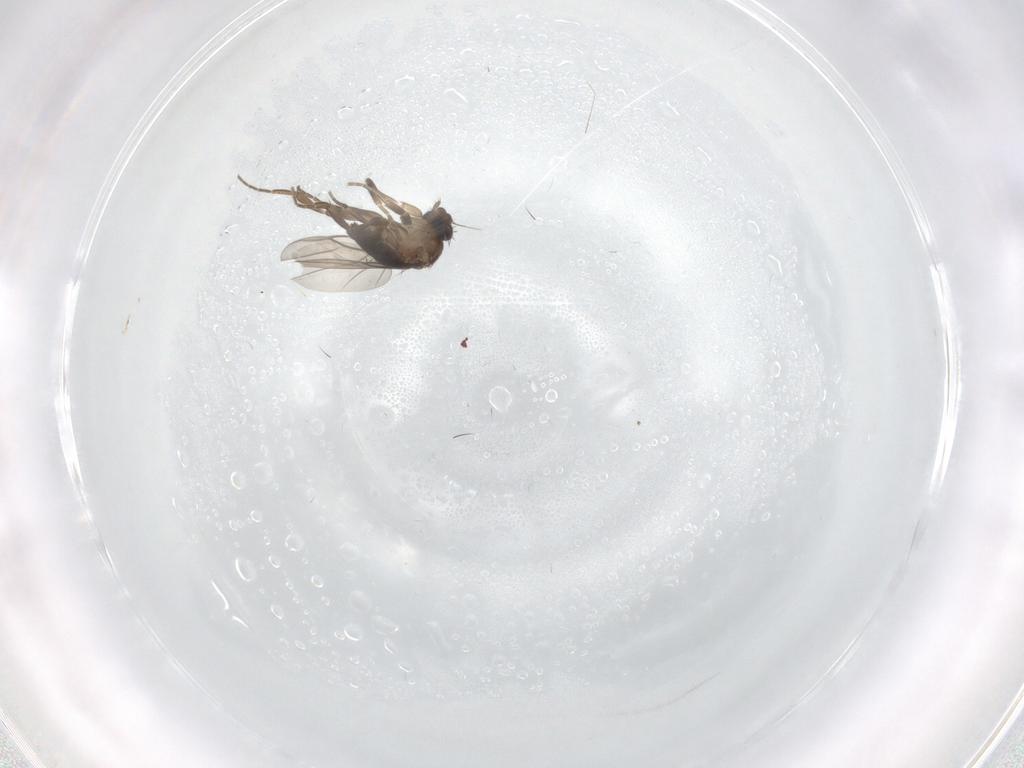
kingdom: Animalia
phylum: Arthropoda
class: Insecta
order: Diptera
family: Phoridae
